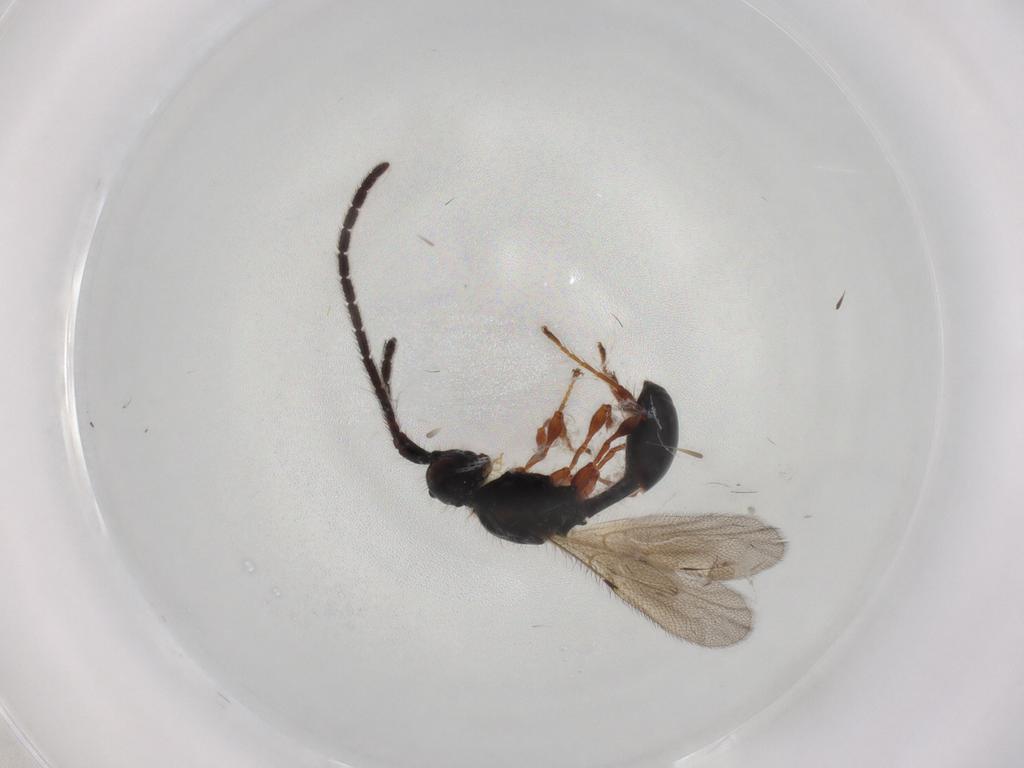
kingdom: Animalia
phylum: Arthropoda
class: Insecta
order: Hymenoptera
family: Diapriidae
